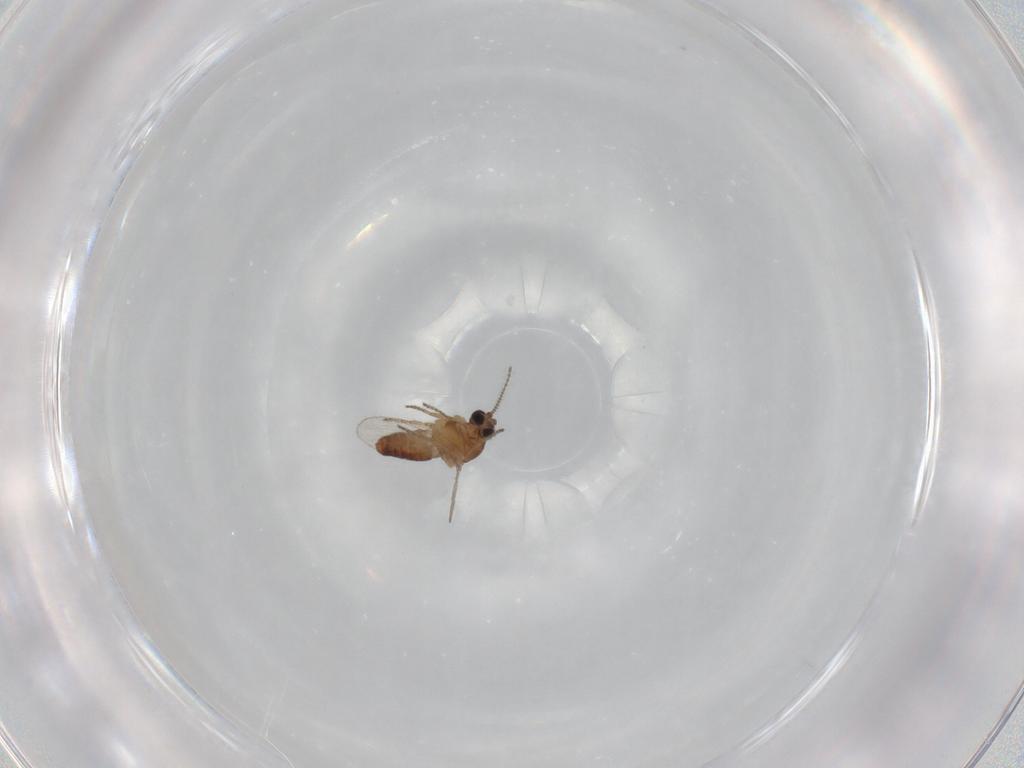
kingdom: Animalia
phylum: Arthropoda
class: Insecta
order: Diptera
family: Ceratopogonidae
